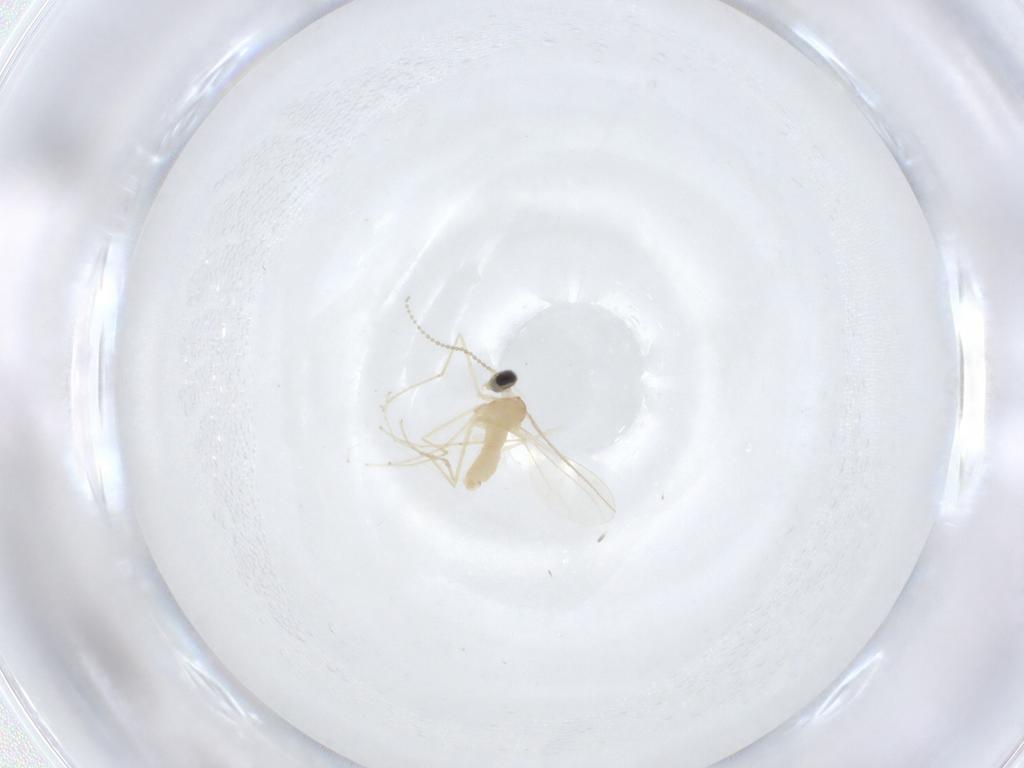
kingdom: Animalia
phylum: Arthropoda
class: Insecta
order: Diptera
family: Cecidomyiidae
